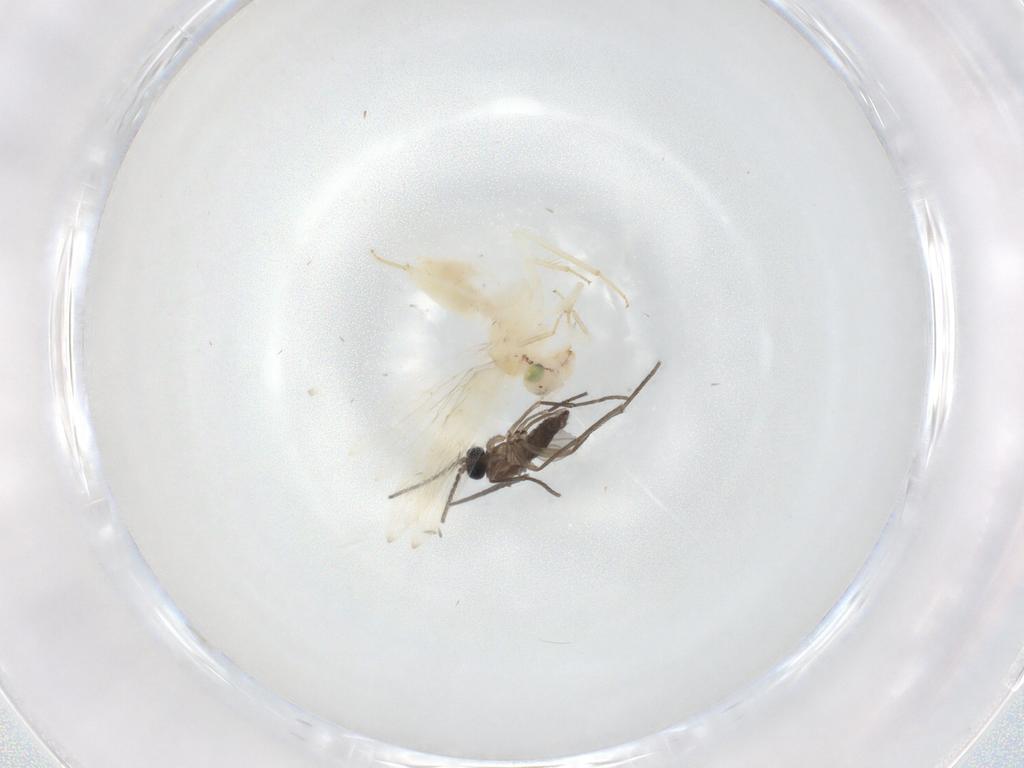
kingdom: Animalia
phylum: Arthropoda
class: Insecta
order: Psocodea
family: Lepidopsocidae
